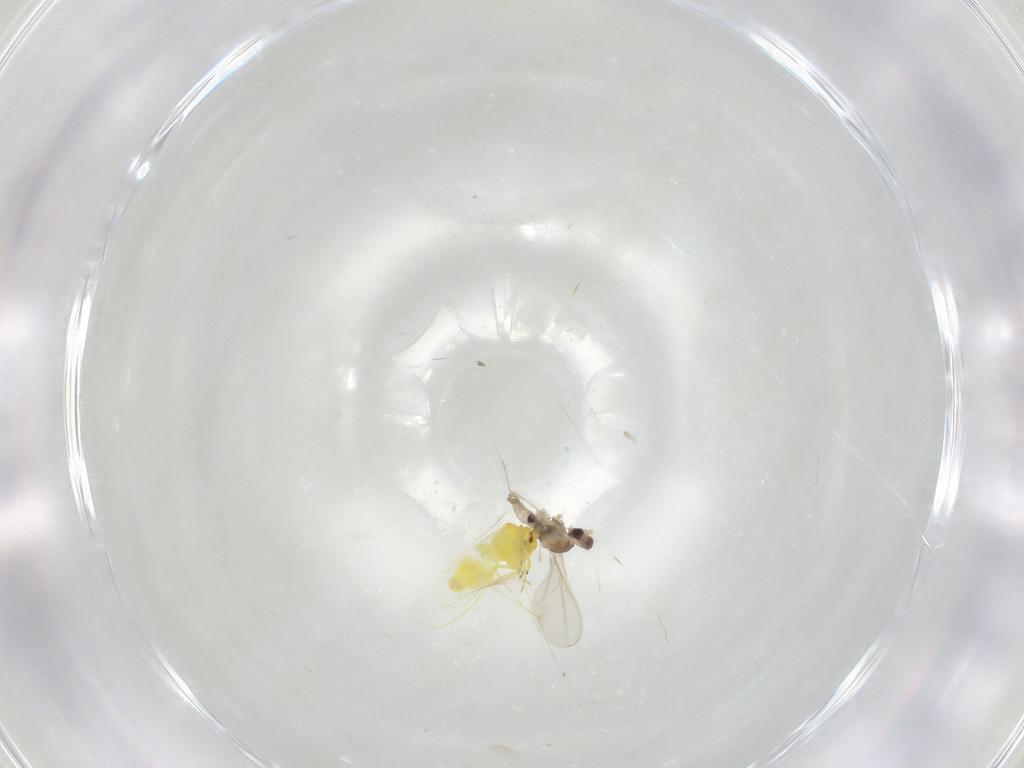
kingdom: Animalia
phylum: Arthropoda
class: Insecta
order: Hemiptera
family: Aleyrodidae
